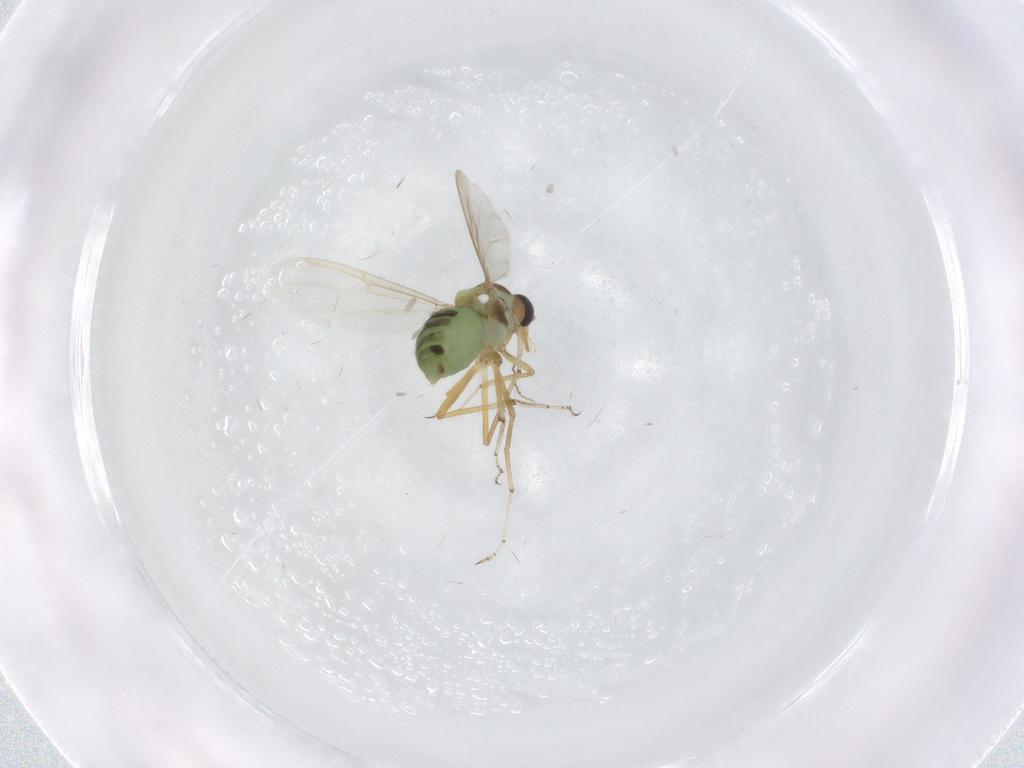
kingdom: Animalia
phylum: Arthropoda
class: Insecta
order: Diptera
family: Ceratopogonidae
